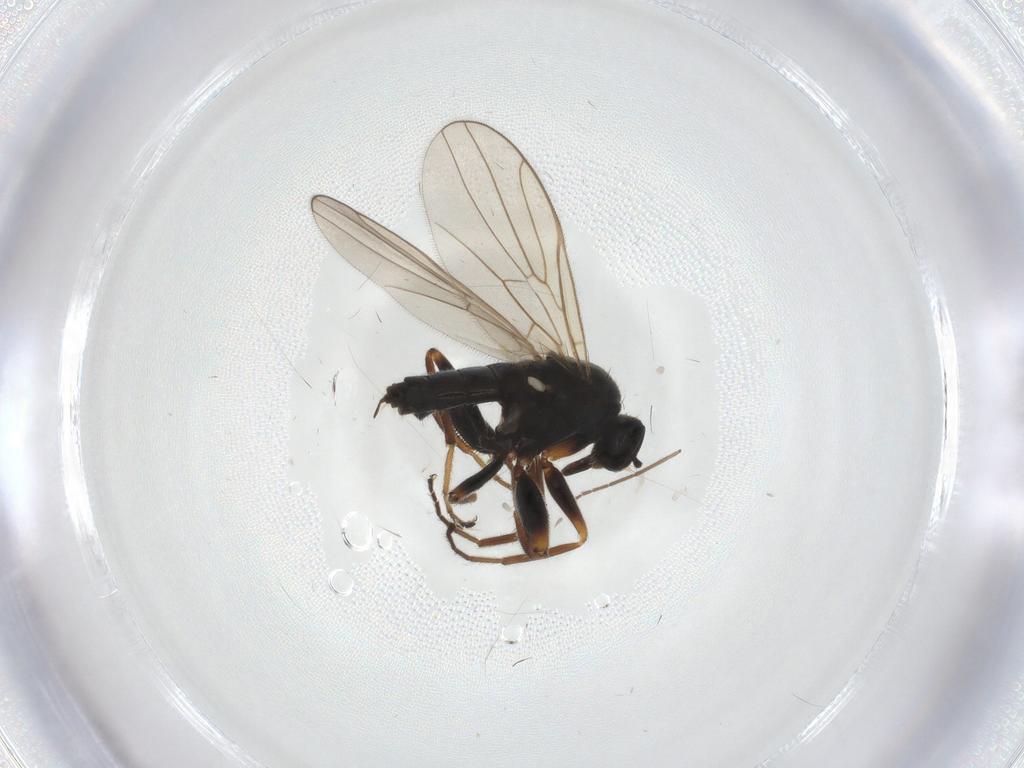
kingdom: Animalia
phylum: Arthropoda
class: Insecta
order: Diptera
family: Chironomidae
